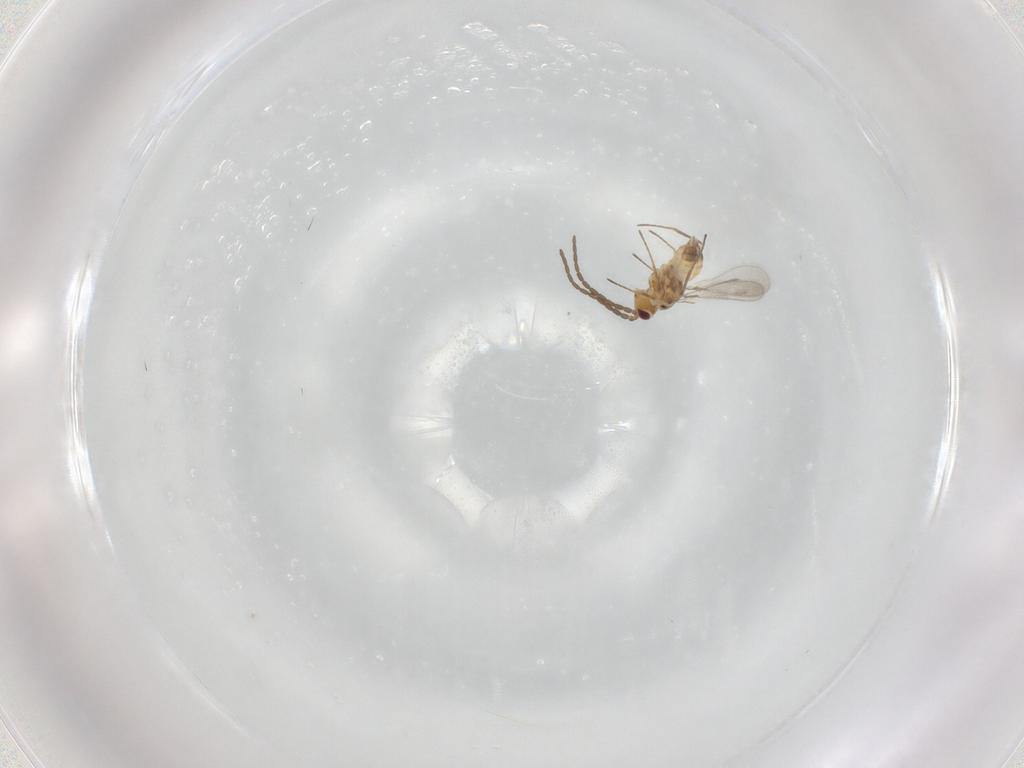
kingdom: Animalia
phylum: Arthropoda
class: Insecta
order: Hymenoptera
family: Mymaridae
